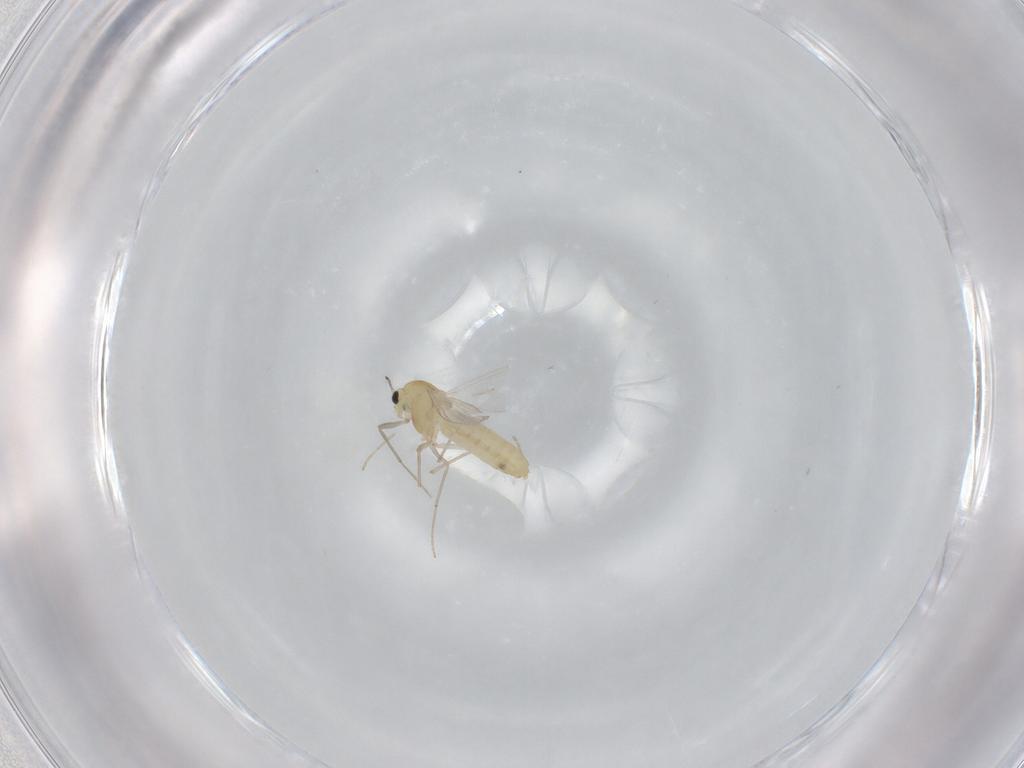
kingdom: Animalia
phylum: Arthropoda
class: Insecta
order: Diptera
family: Chironomidae
